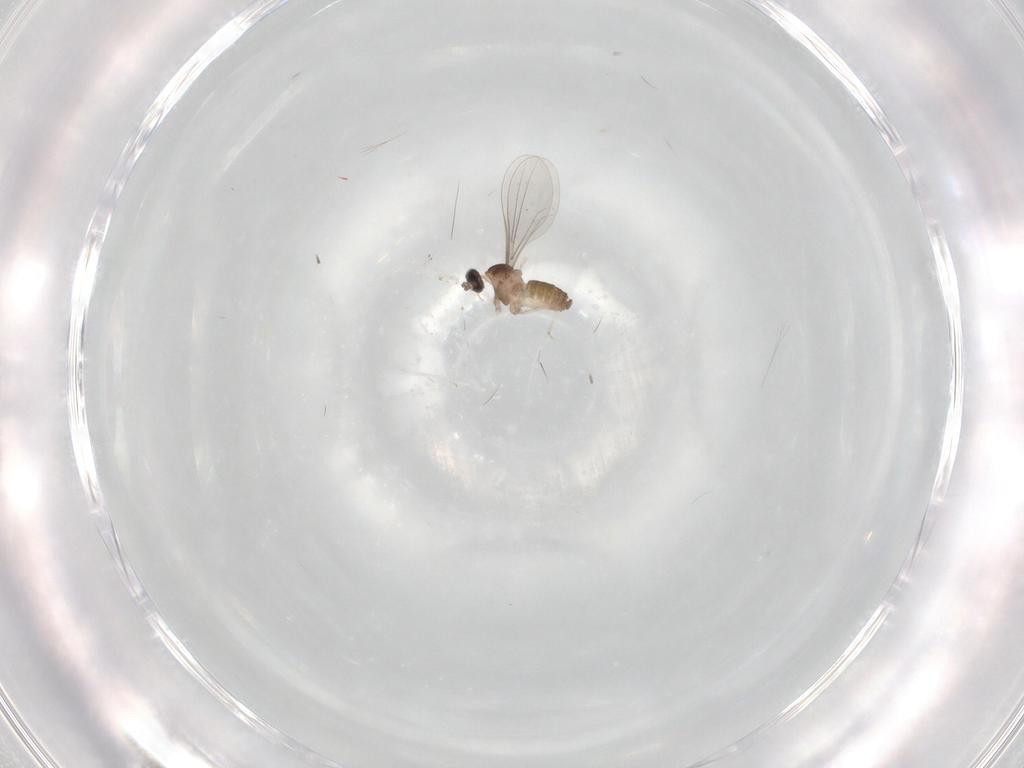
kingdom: Animalia
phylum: Arthropoda
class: Insecta
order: Diptera
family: Cecidomyiidae
